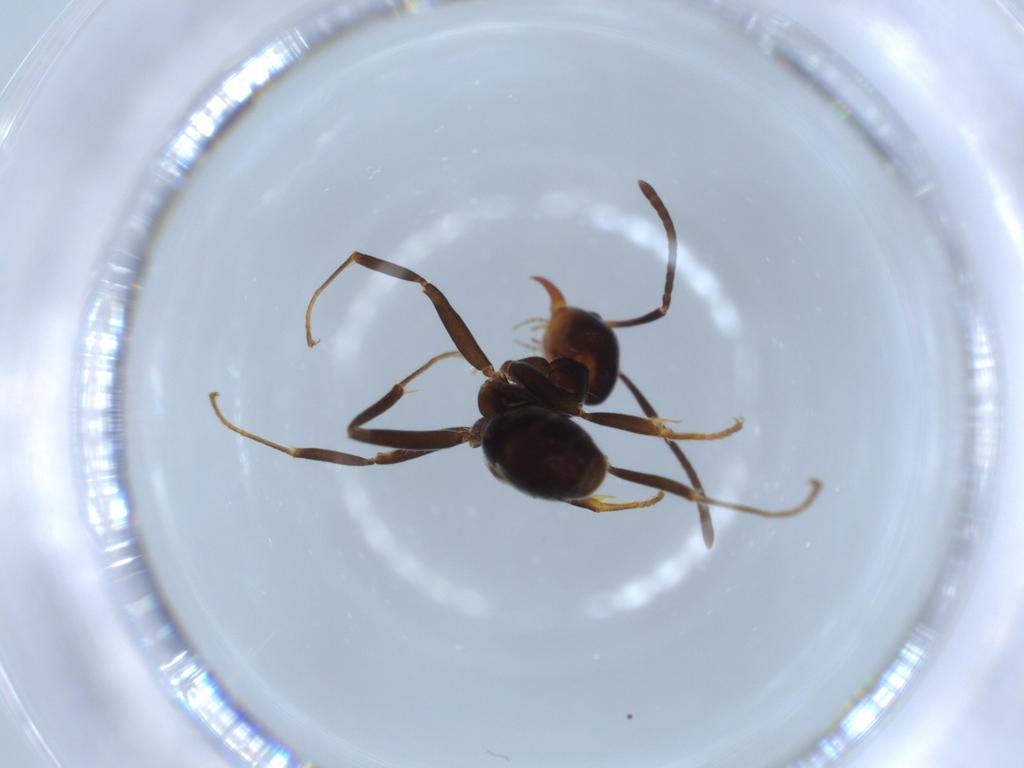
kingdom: Animalia
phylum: Arthropoda
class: Insecta
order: Hymenoptera
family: Formicidae
